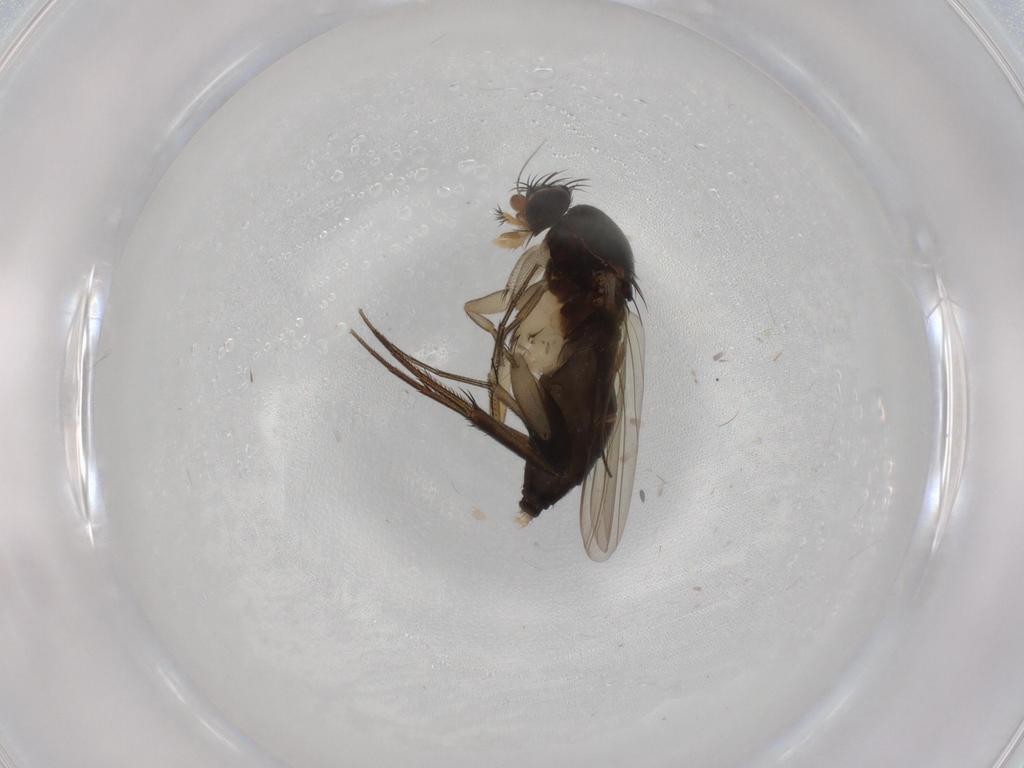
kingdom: Animalia
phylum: Arthropoda
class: Insecta
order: Diptera
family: Phoridae
